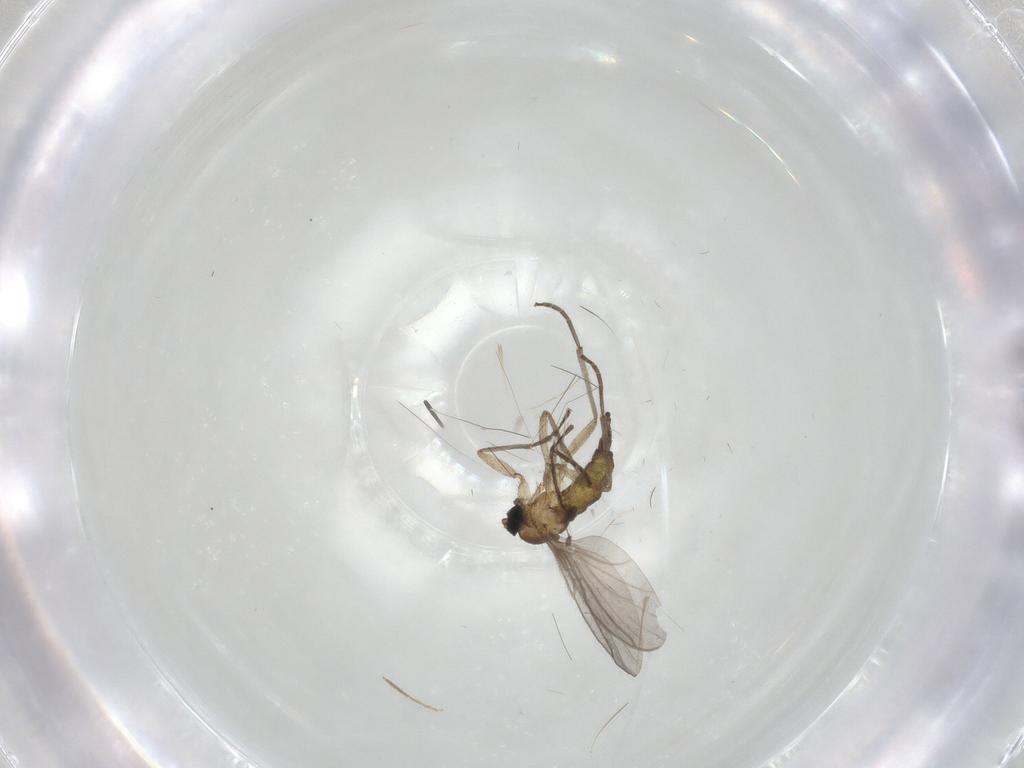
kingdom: Animalia
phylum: Arthropoda
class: Insecta
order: Diptera
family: Sciaridae
